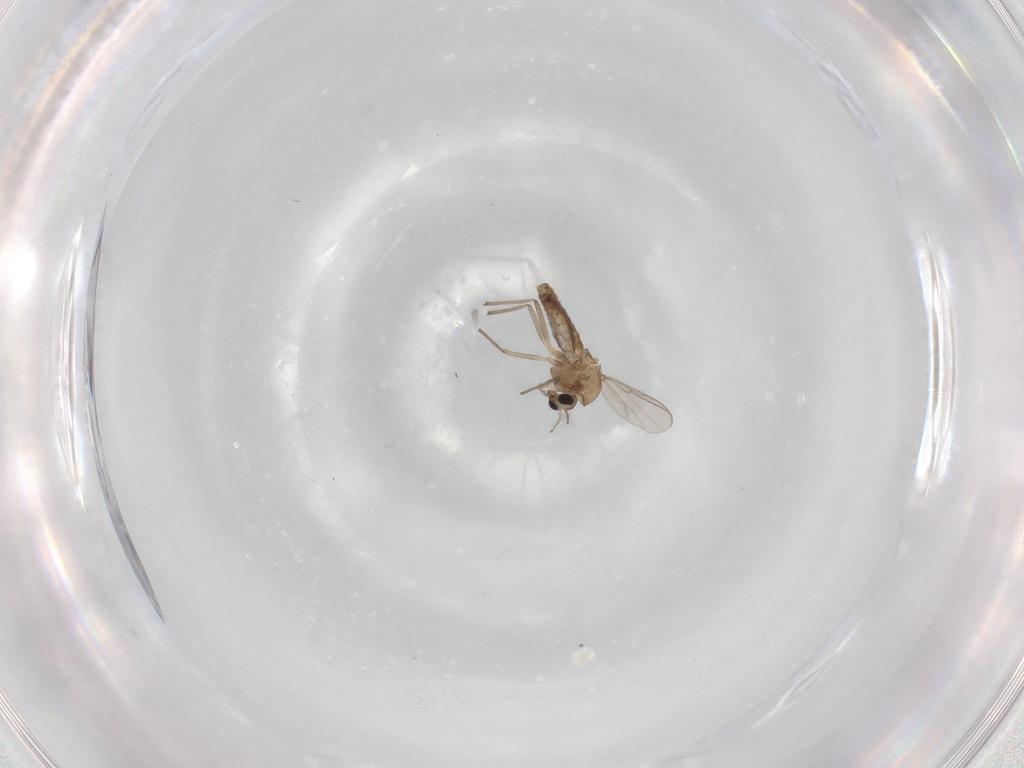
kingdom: Animalia
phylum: Arthropoda
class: Insecta
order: Diptera
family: Chironomidae
